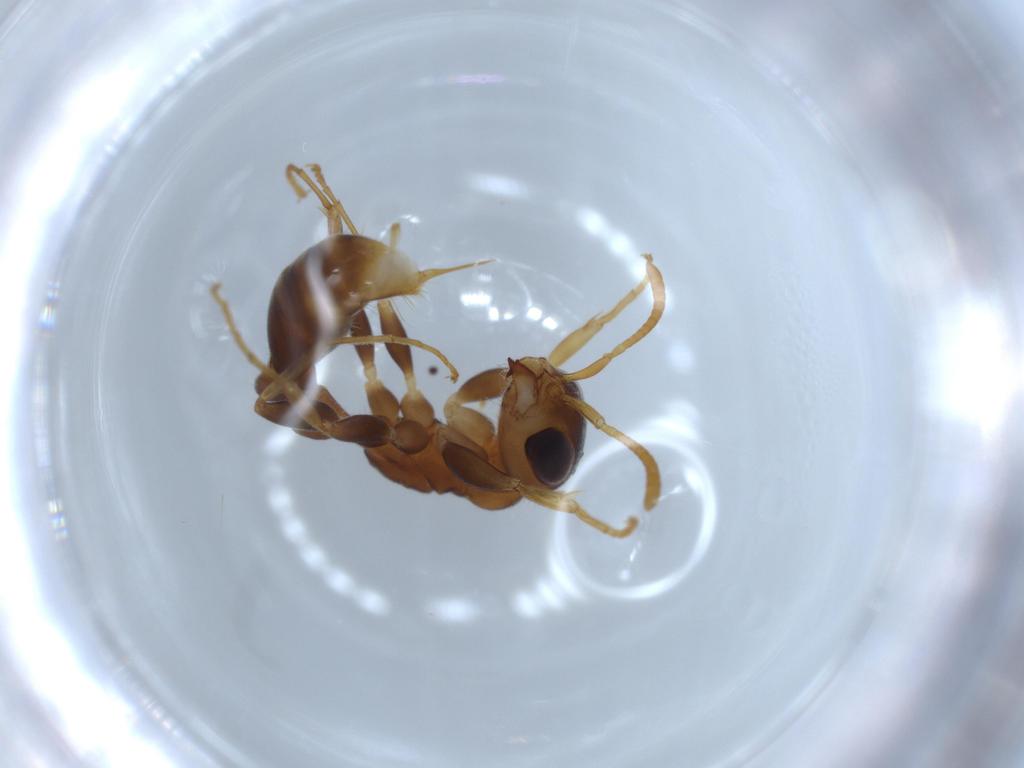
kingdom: Animalia
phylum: Arthropoda
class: Insecta
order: Hymenoptera
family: Formicidae
